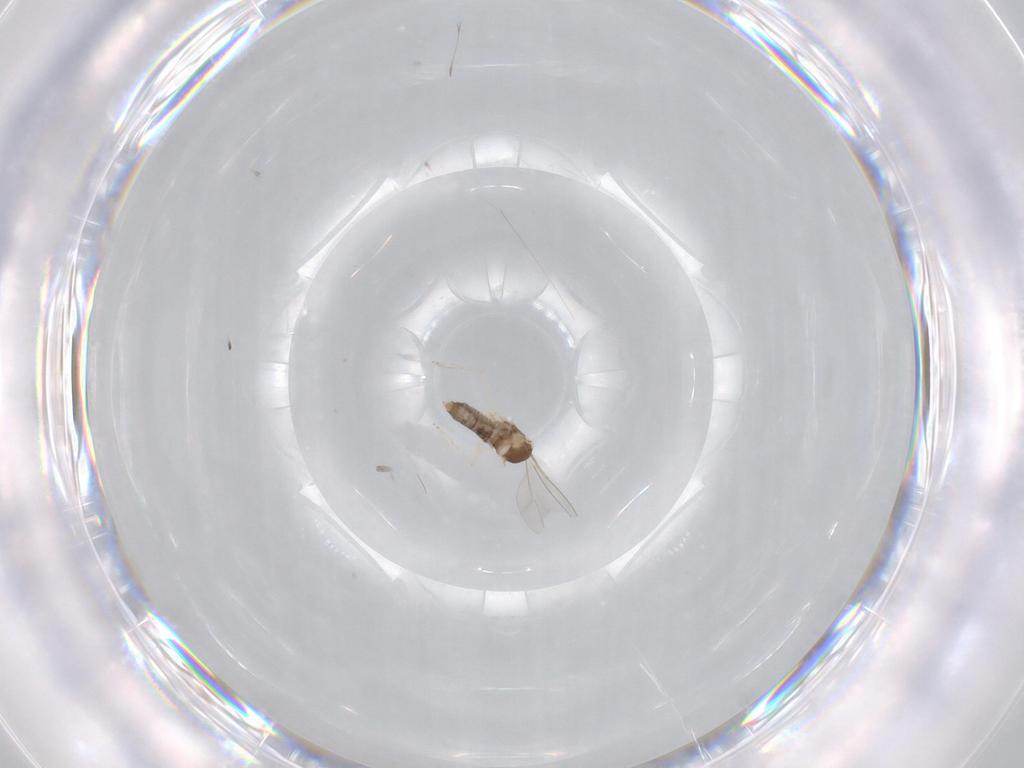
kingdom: Animalia
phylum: Arthropoda
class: Insecta
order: Diptera
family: Cecidomyiidae
